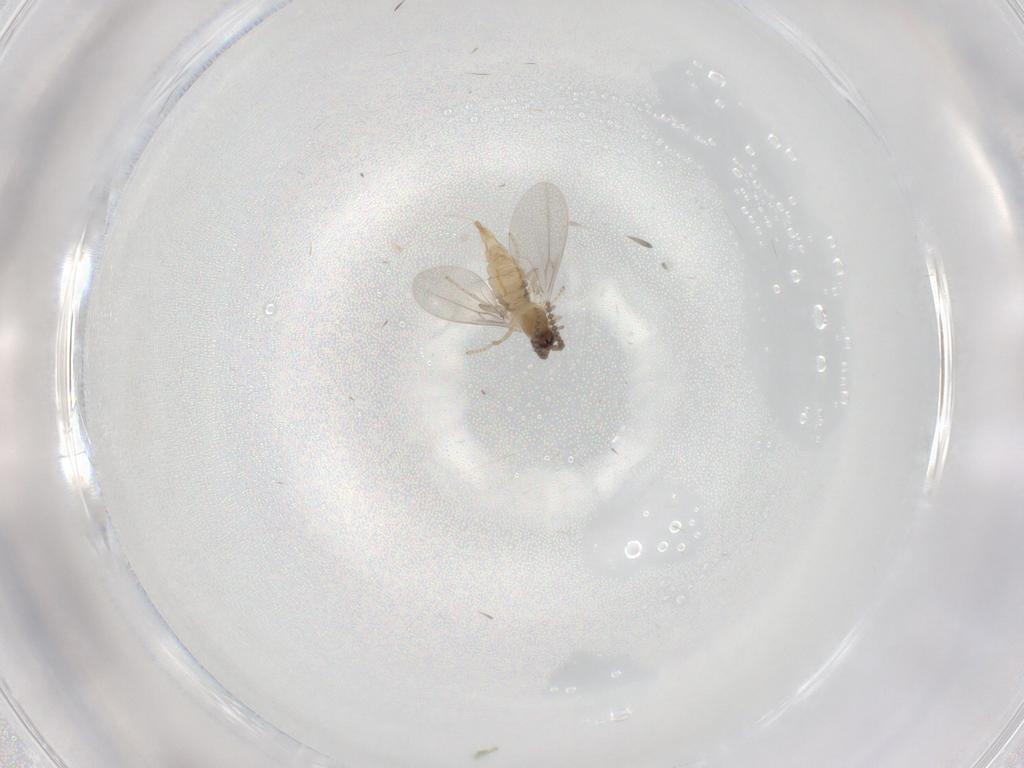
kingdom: Animalia
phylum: Arthropoda
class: Insecta
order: Diptera
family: Cecidomyiidae
